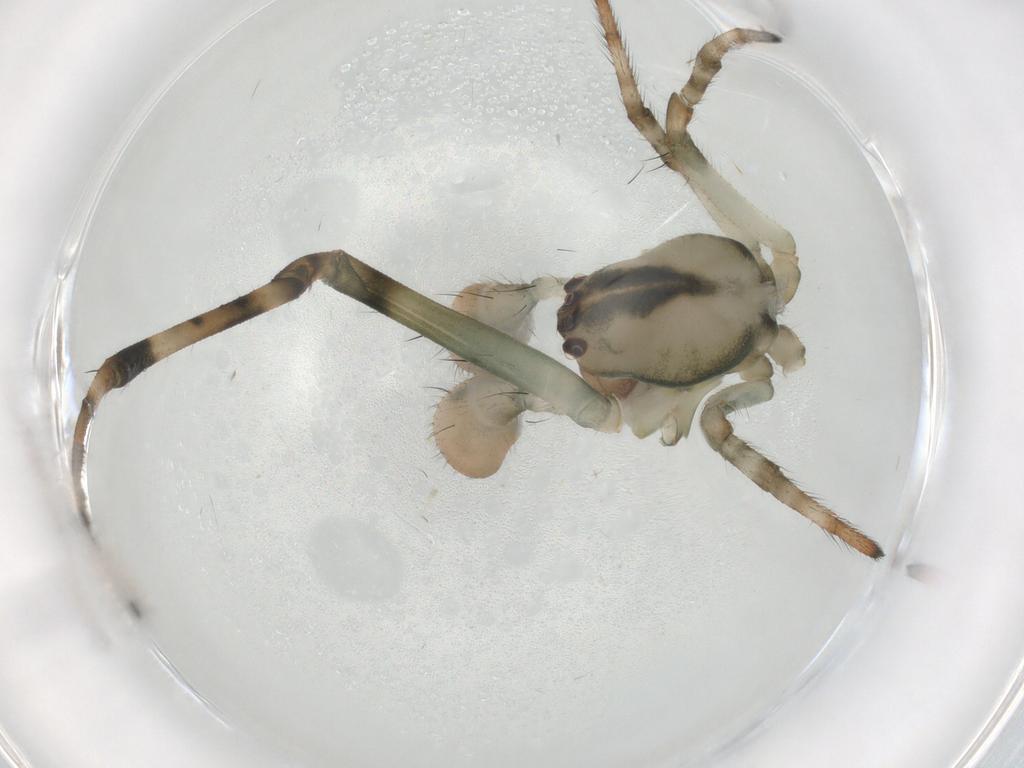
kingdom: Animalia
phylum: Arthropoda
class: Arachnida
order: Araneae
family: Tetragnathidae
